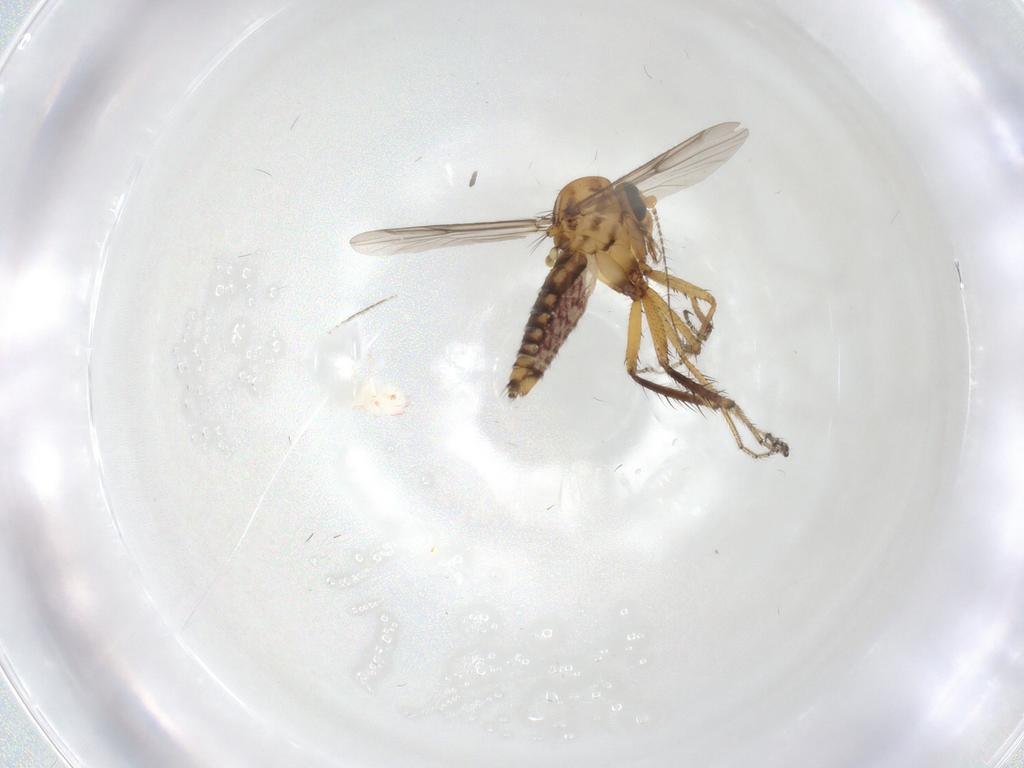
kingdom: Animalia
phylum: Arthropoda
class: Insecta
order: Diptera
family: Ceratopogonidae
